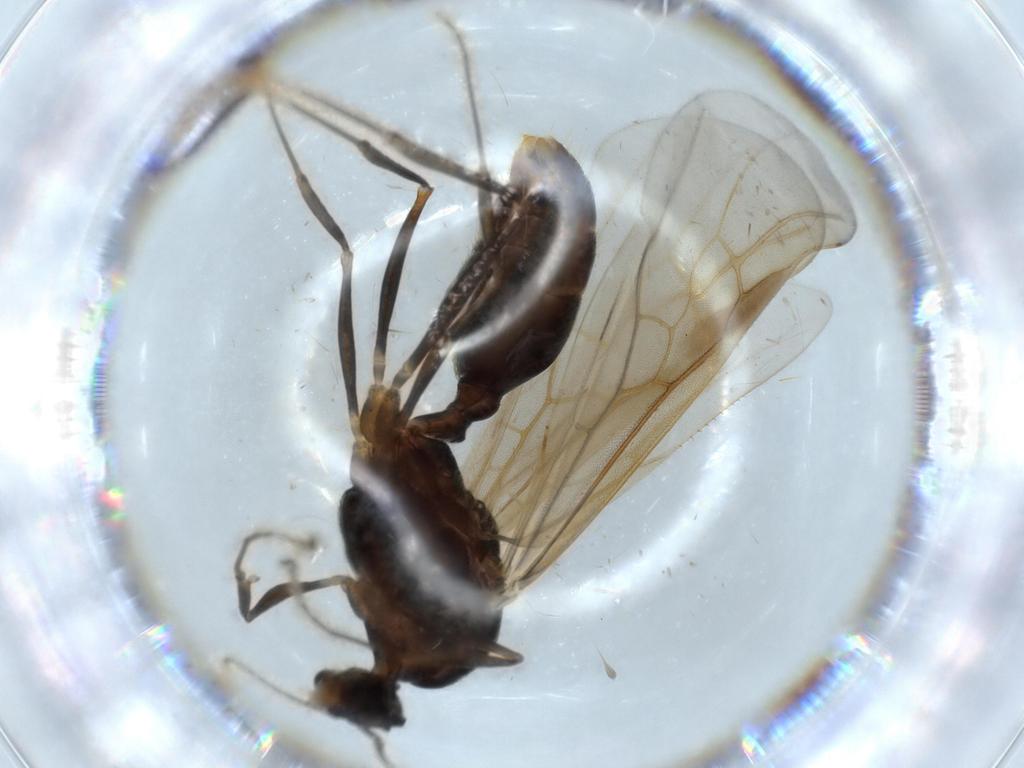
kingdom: Animalia
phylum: Arthropoda
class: Insecta
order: Hymenoptera
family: Formicidae
